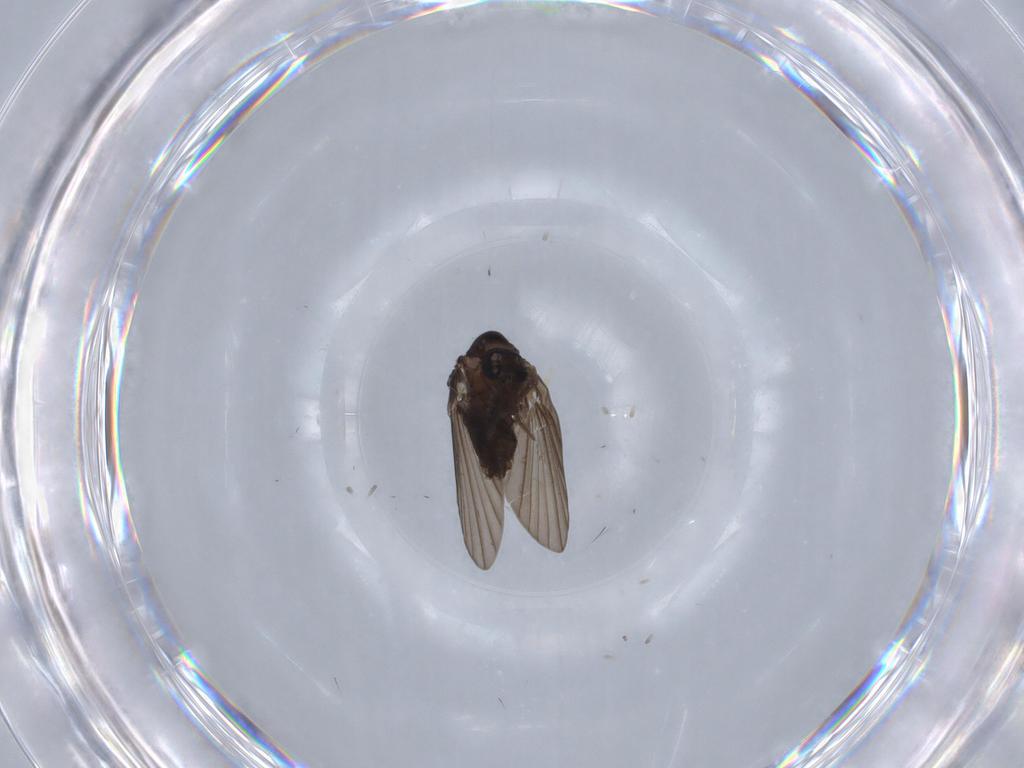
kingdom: Animalia
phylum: Arthropoda
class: Insecta
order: Diptera
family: Psychodidae
